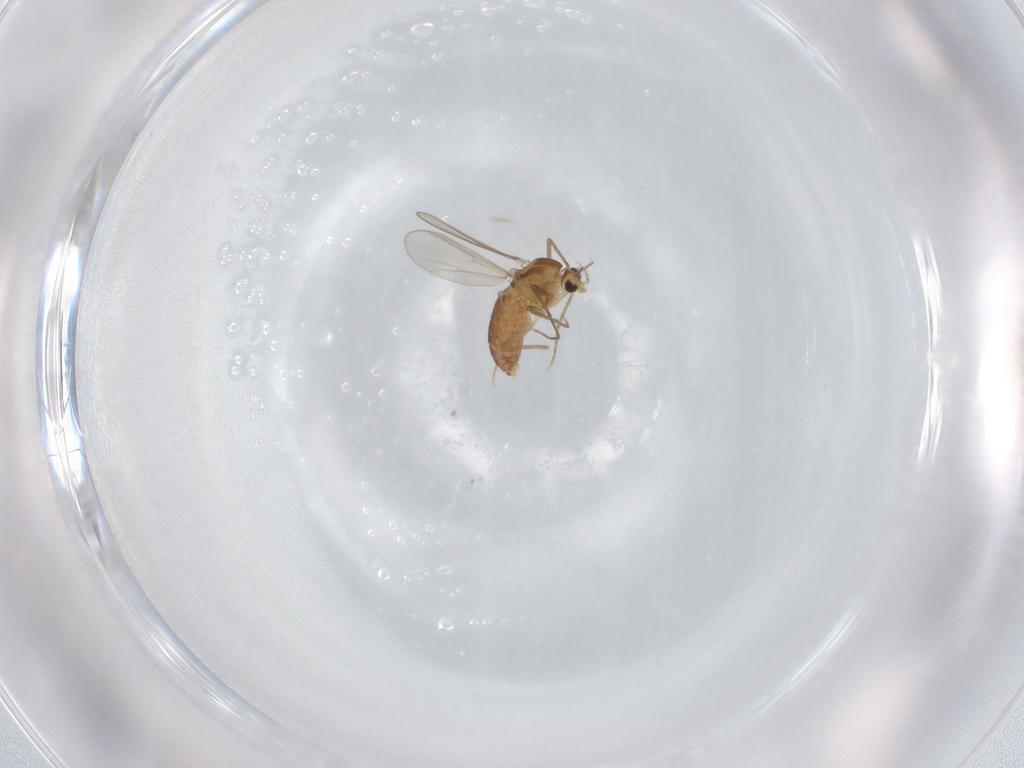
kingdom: Animalia
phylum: Arthropoda
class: Insecta
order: Diptera
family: Chironomidae
